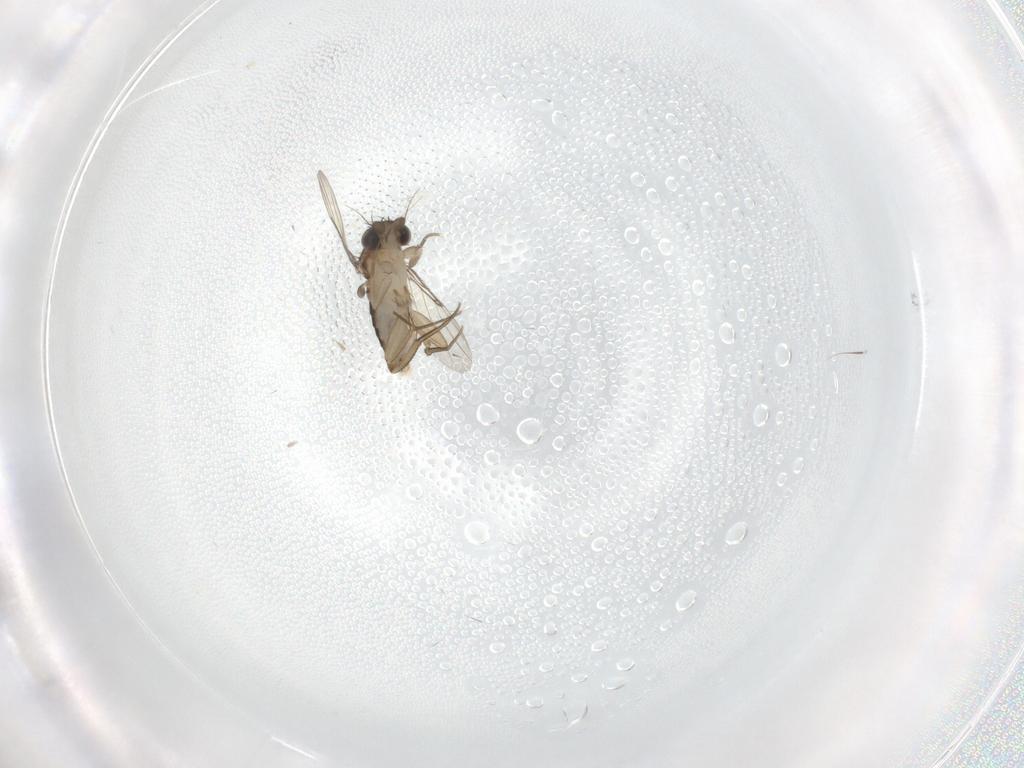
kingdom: Animalia
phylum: Arthropoda
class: Insecta
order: Diptera
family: Phoridae
